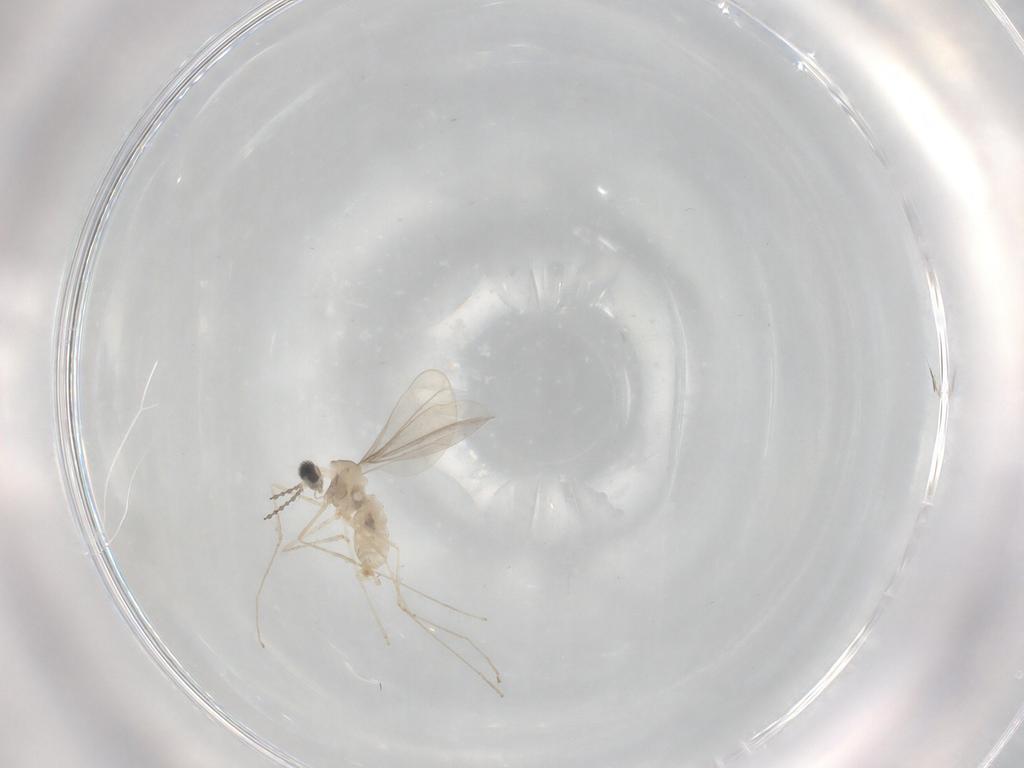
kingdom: Animalia
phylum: Arthropoda
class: Insecta
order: Diptera
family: Cecidomyiidae
